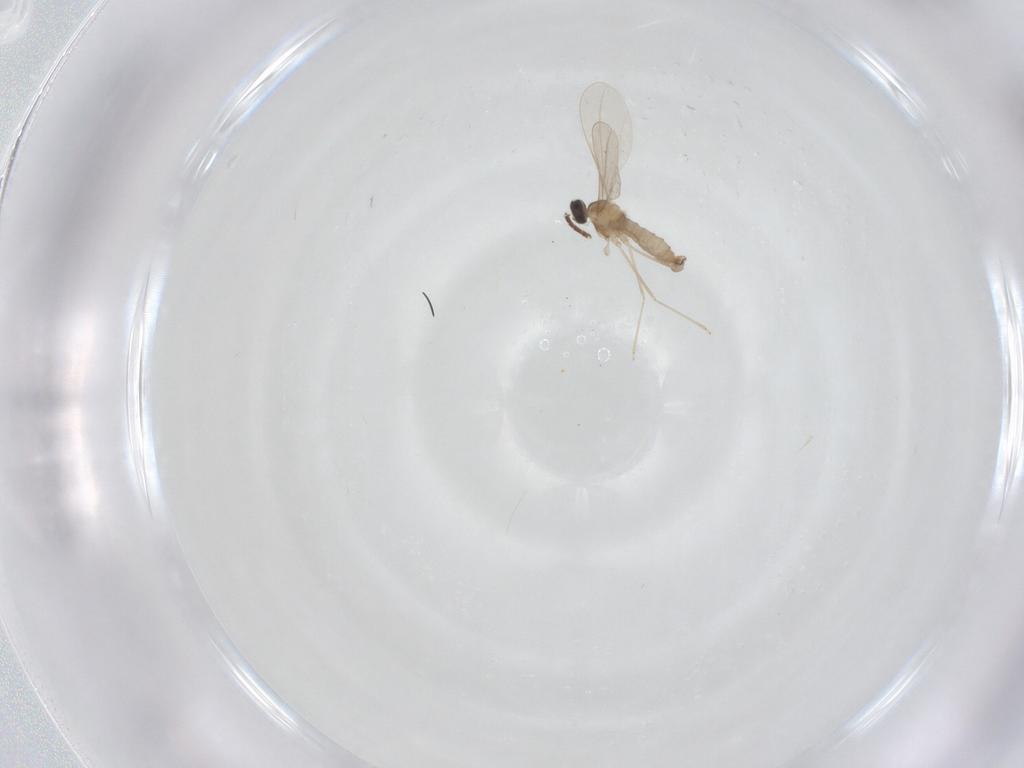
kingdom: Animalia
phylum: Arthropoda
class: Insecta
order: Diptera
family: Cecidomyiidae
